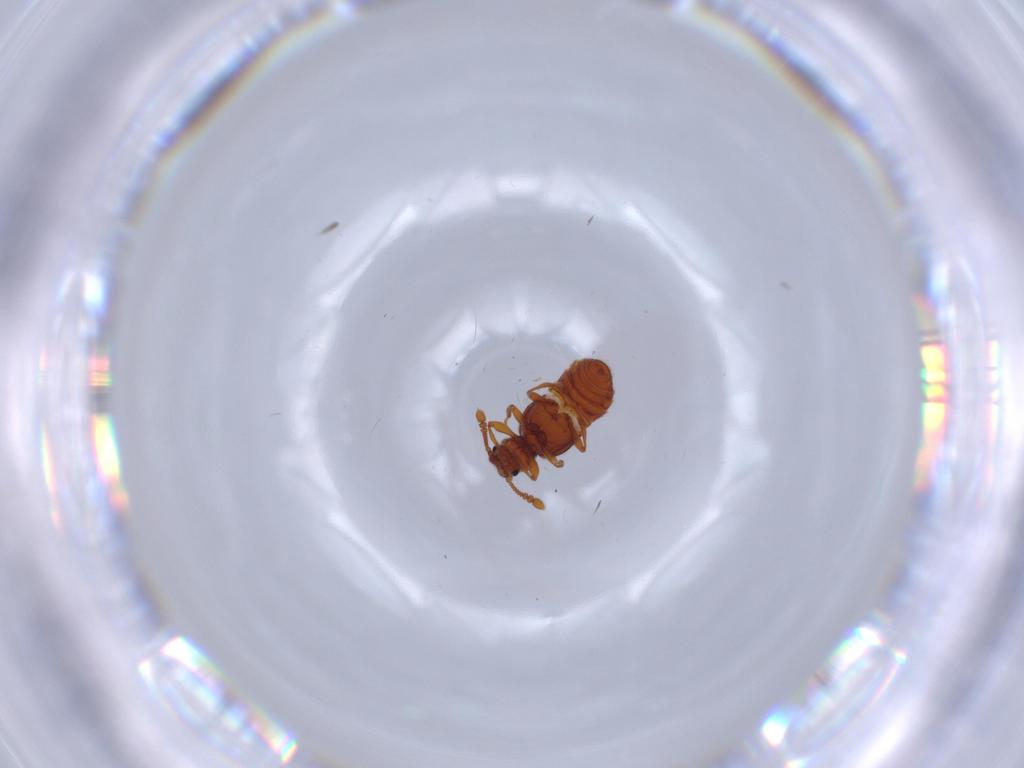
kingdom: Animalia
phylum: Arthropoda
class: Insecta
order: Coleoptera
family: Staphylinidae
